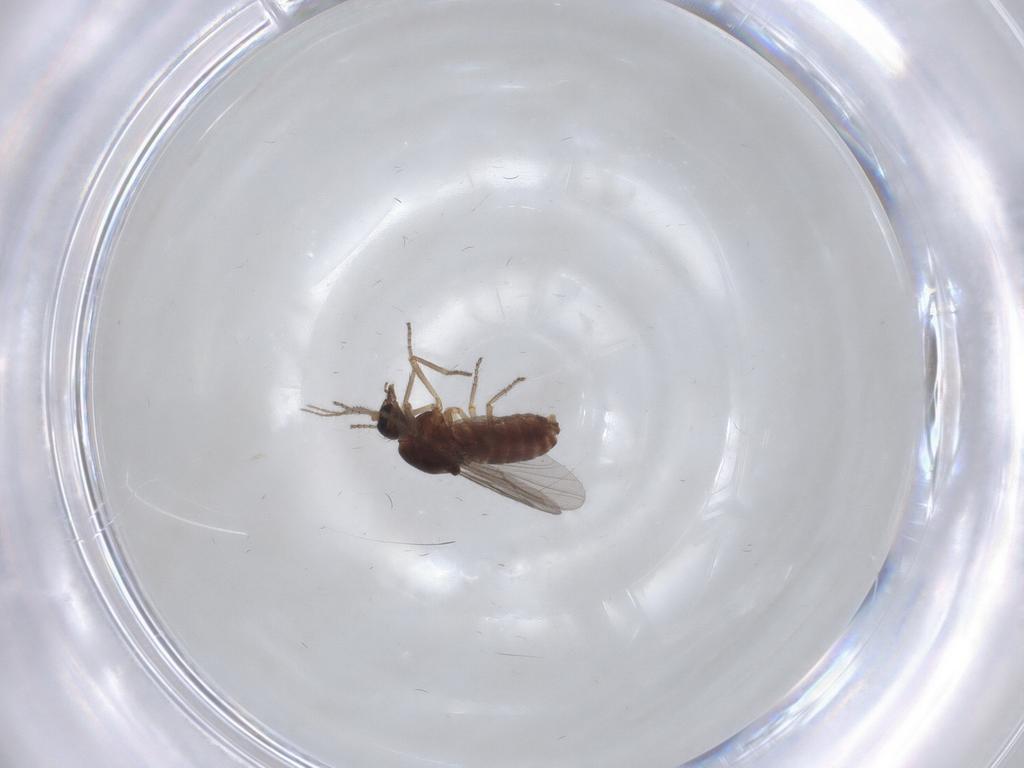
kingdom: Animalia
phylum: Arthropoda
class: Insecta
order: Diptera
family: Ceratopogonidae
